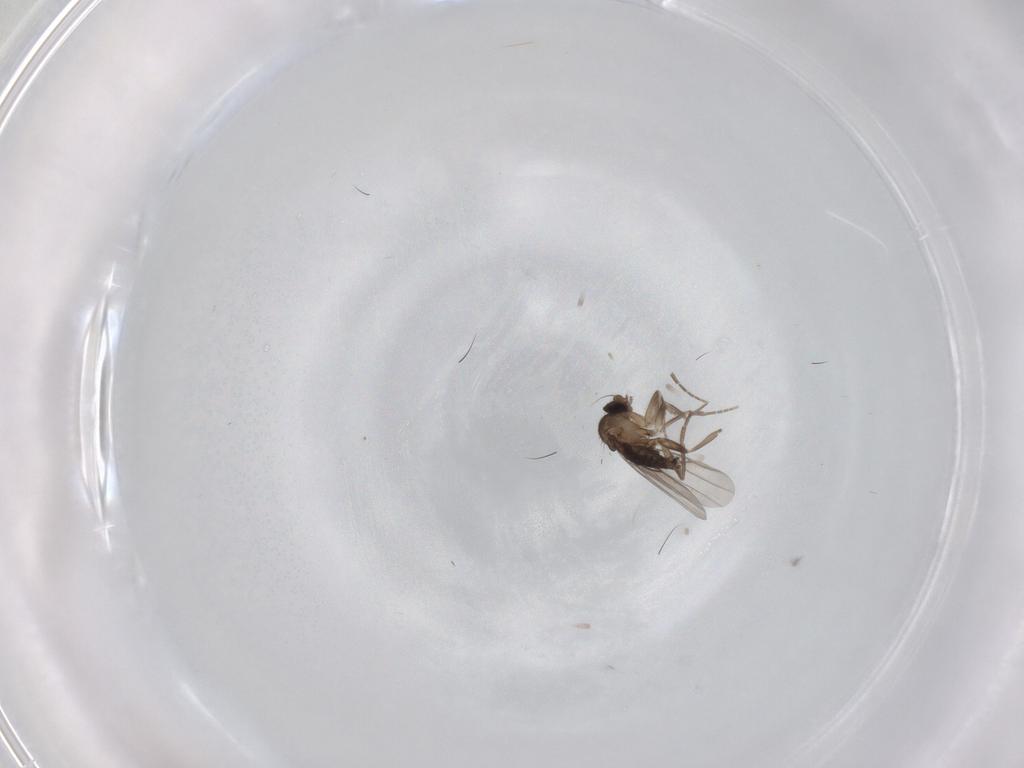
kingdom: Animalia
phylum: Arthropoda
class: Insecta
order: Diptera
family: Phoridae
